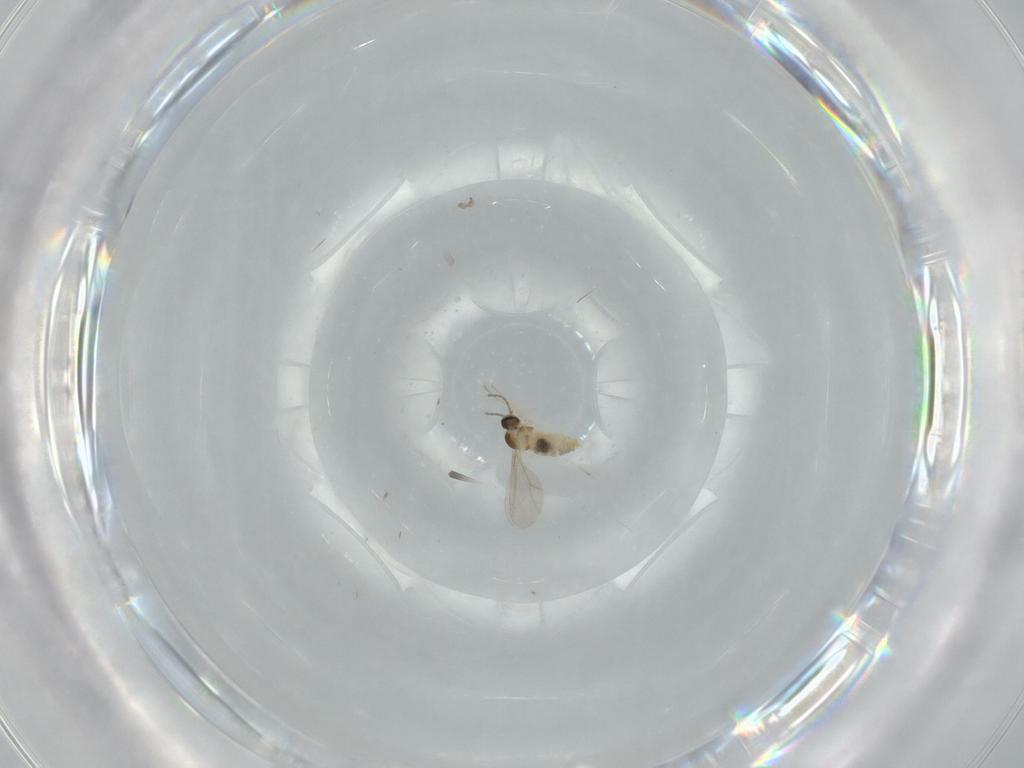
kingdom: Animalia
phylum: Arthropoda
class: Insecta
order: Diptera
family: Cecidomyiidae
